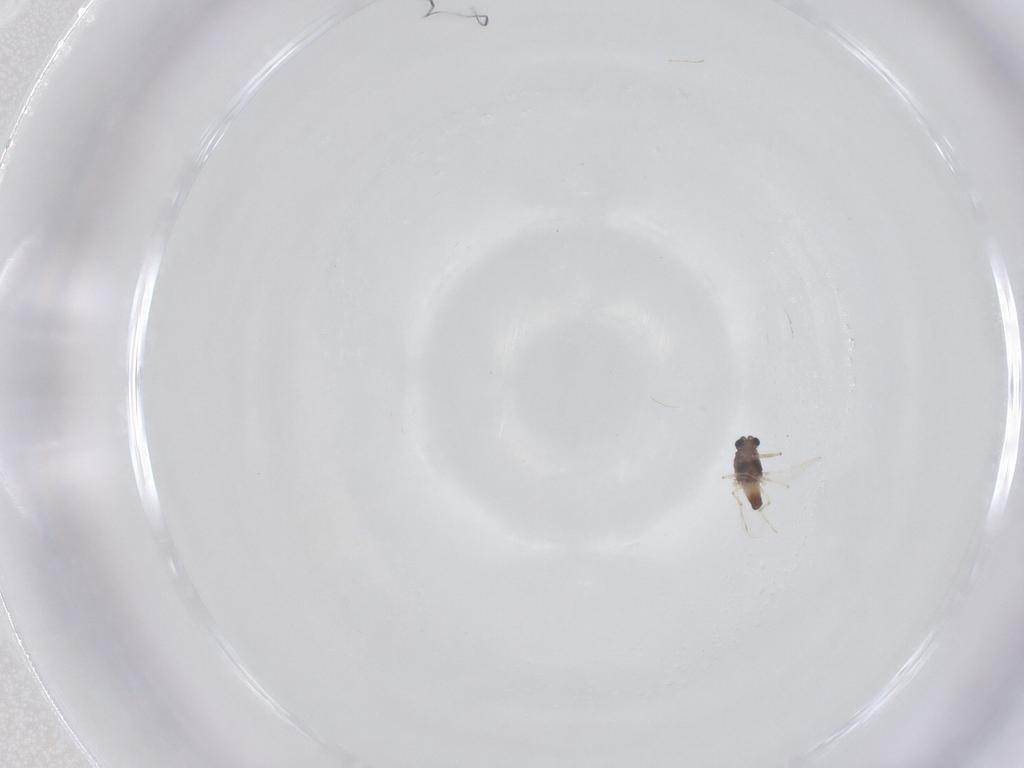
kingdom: Animalia
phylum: Arthropoda
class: Insecta
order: Diptera
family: Chironomidae
